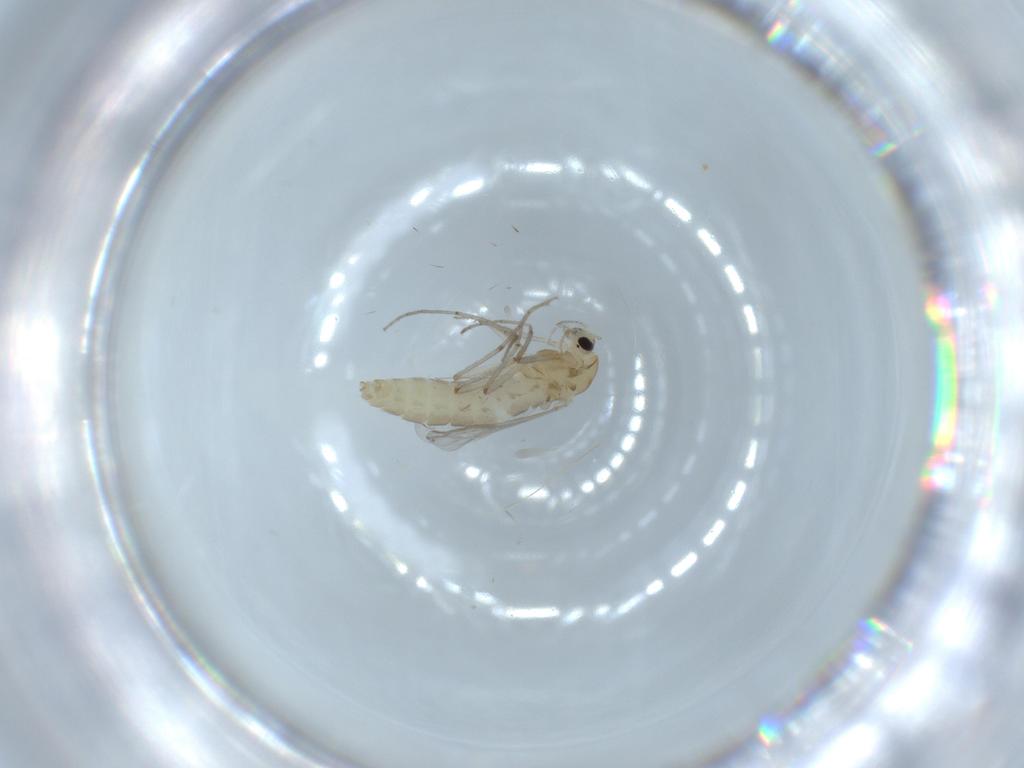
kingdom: Animalia
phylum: Arthropoda
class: Insecta
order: Diptera
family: Chironomidae
